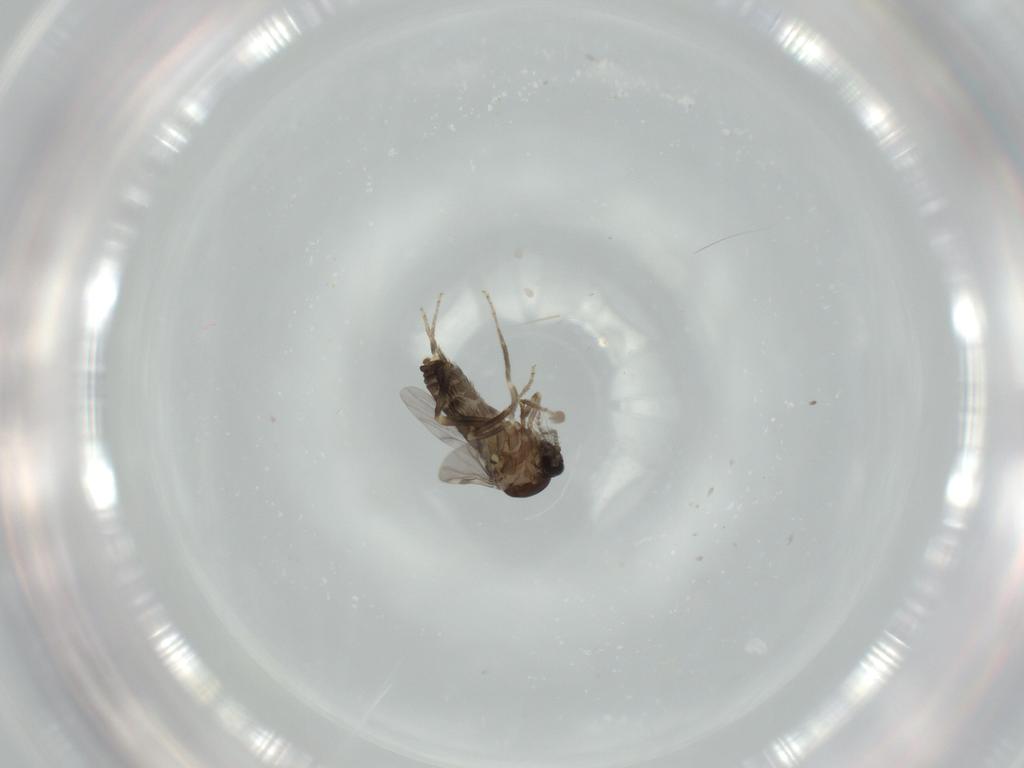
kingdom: Animalia
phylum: Arthropoda
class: Insecta
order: Diptera
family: Ceratopogonidae
